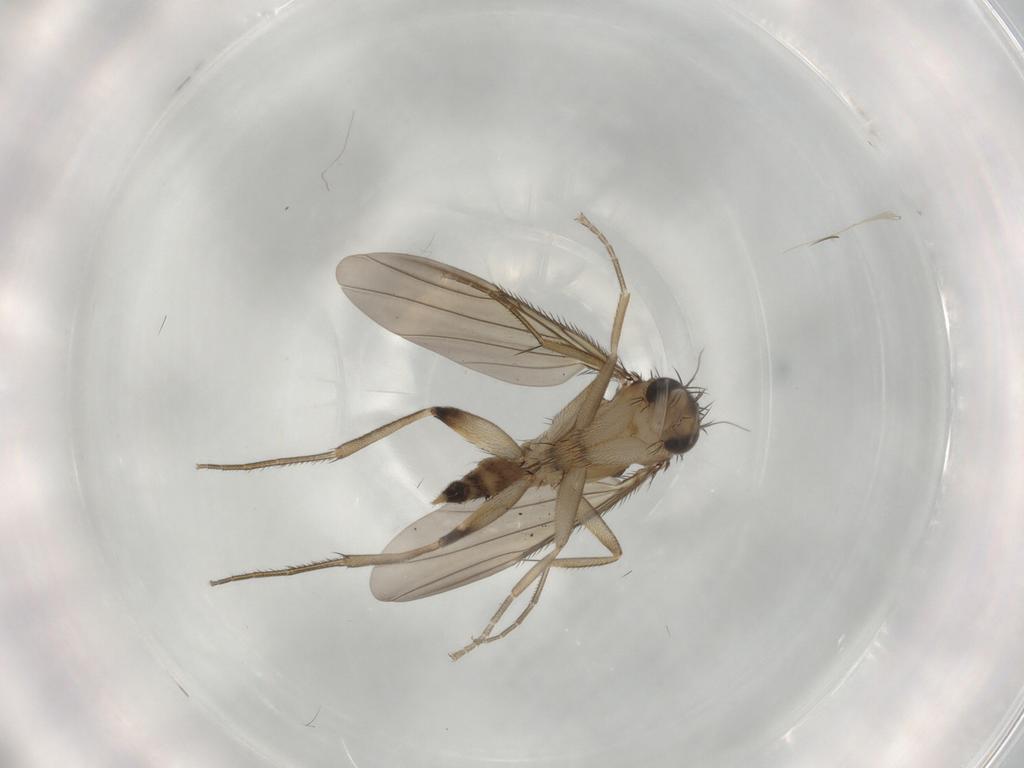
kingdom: Animalia
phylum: Arthropoda
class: Insecta
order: Diptera
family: Phoridae
